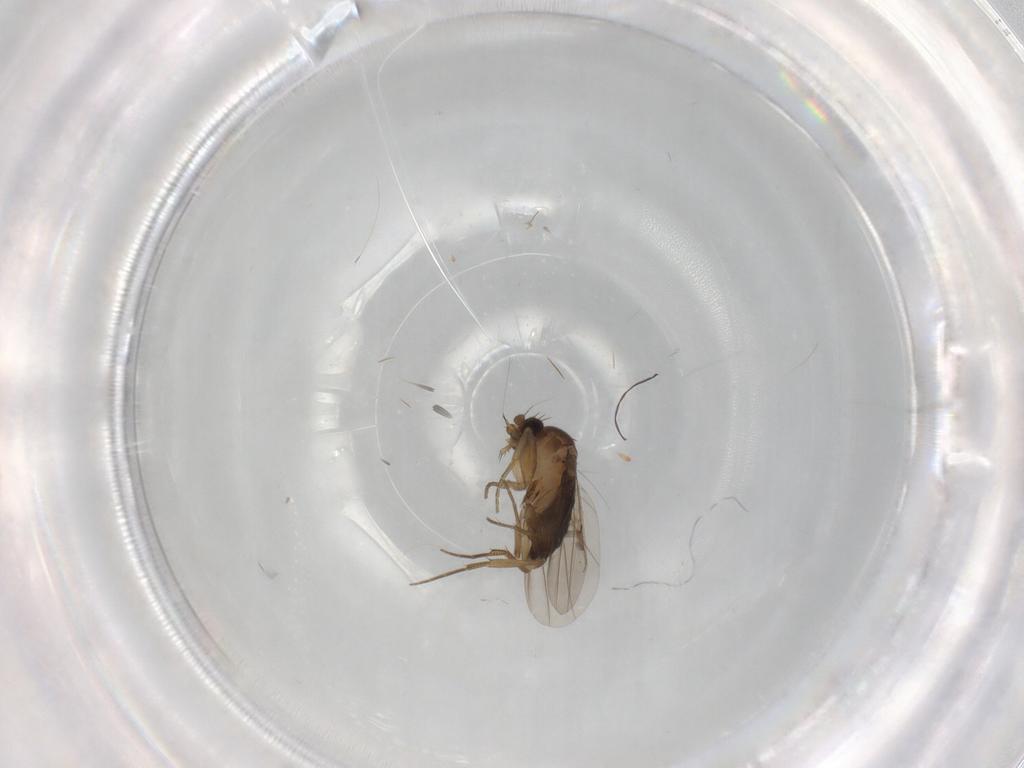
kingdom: Animalia
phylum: Arthropoda
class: Insecta
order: Diptera
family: Phoridae
